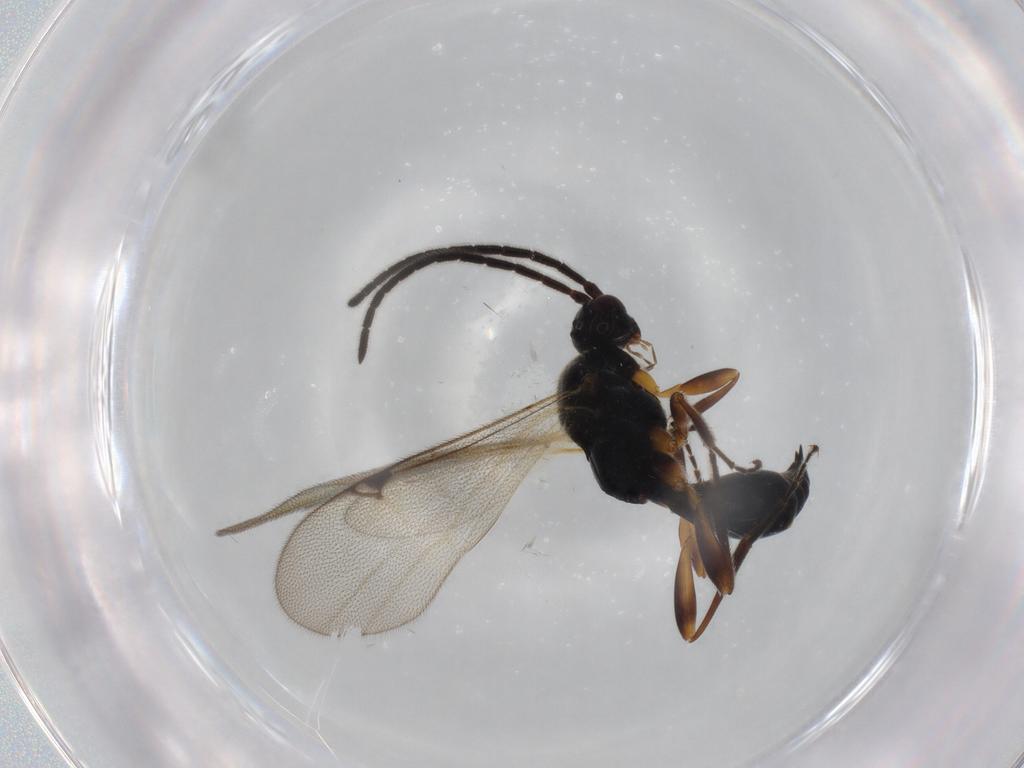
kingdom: Animalia
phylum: Arthropoda
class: Insecta
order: Hymenoptera
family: Proctotrupidae
